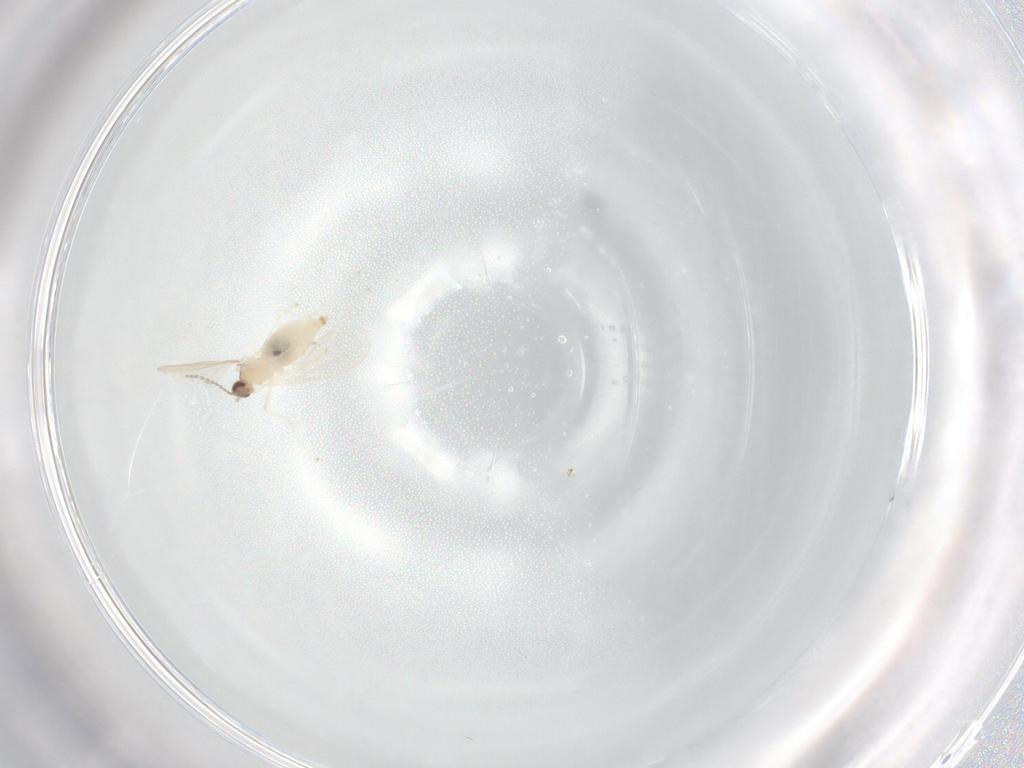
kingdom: Animalia
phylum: Arthropoda
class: Insecta
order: Diptera
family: Cecidomyiidae
